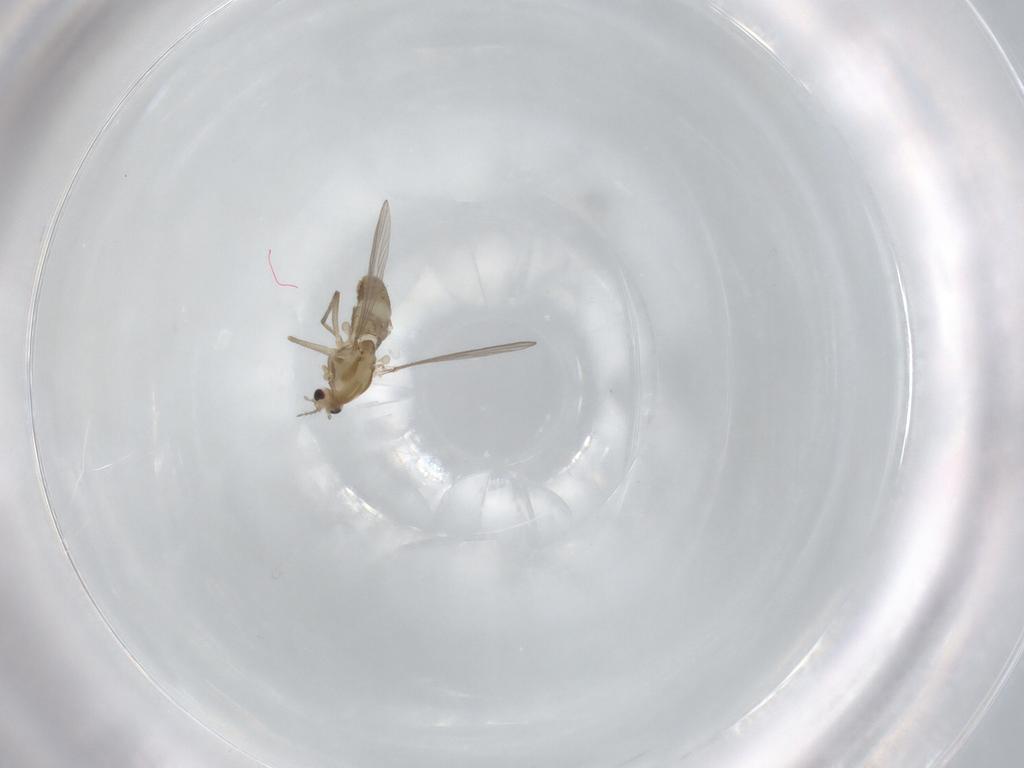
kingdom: Animalia
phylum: Arthropoda
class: Insecta
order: Diptera
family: Chironomidae
